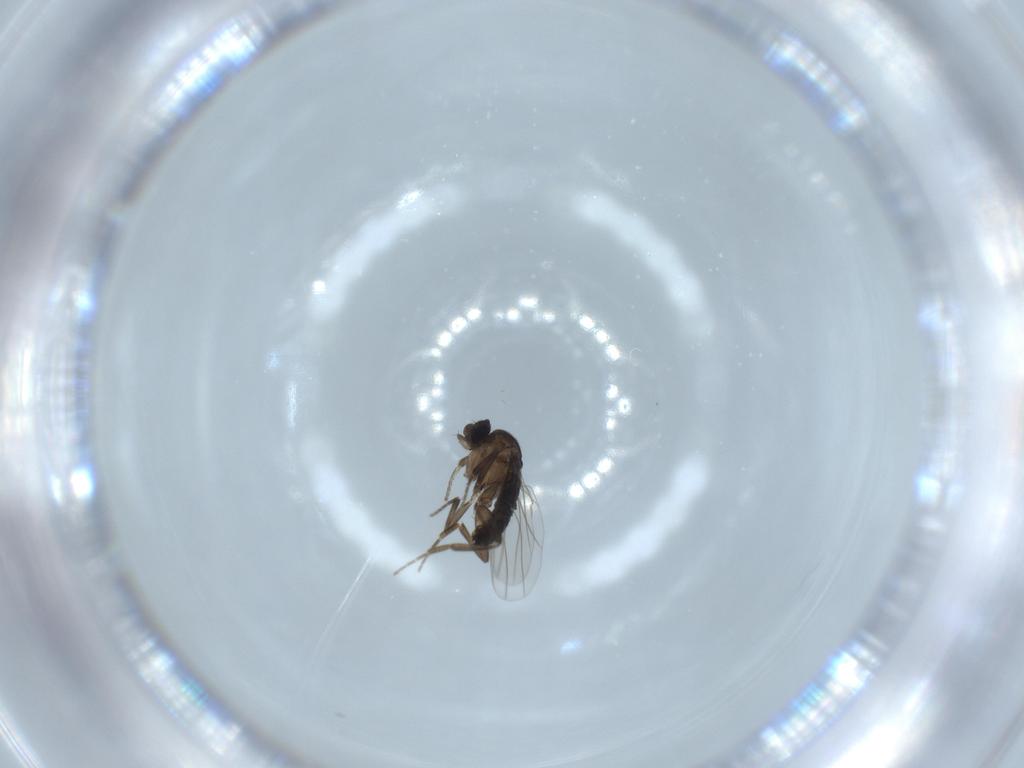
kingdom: Animalia
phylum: Arthropoda
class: Insecta
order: Diptera
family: Phoridae
